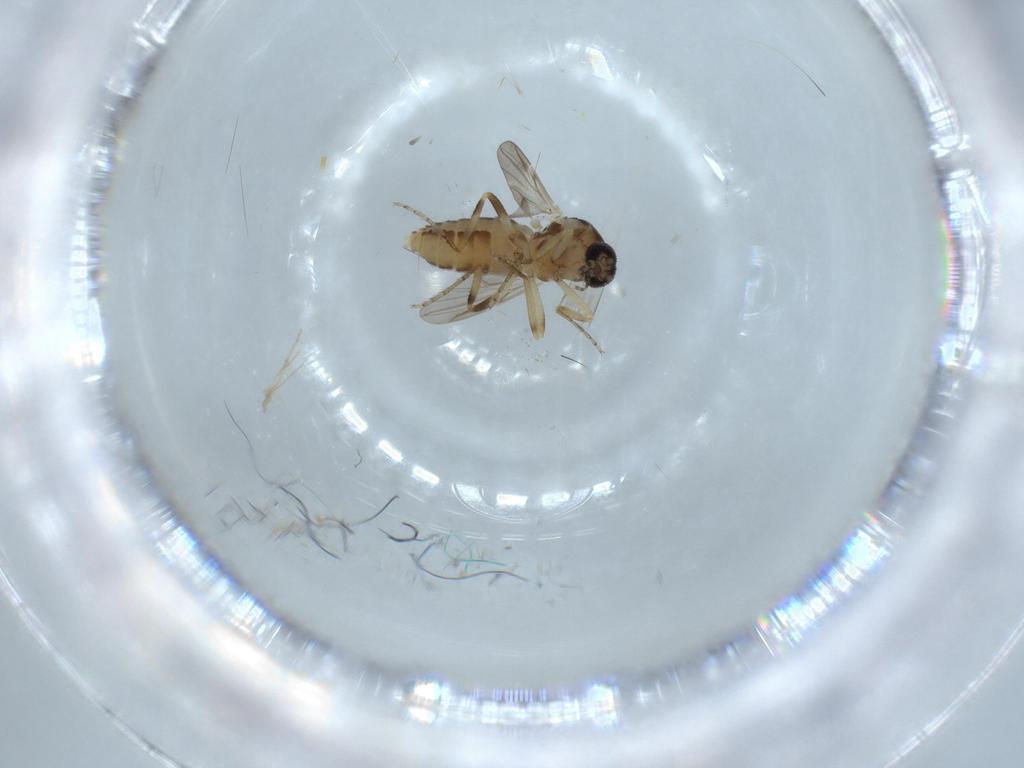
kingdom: Animalia
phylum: Arthropoda
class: Insecta
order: Diptera
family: Ceratopogonidae
